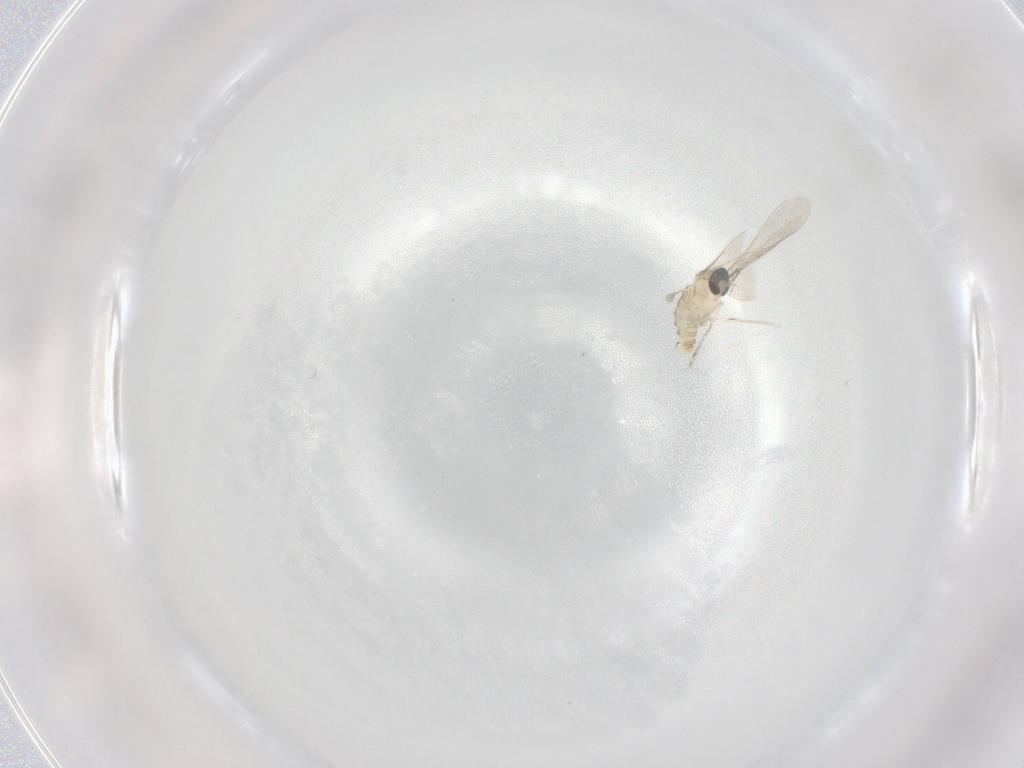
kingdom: Animalia
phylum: Arthropoda
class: Insecta
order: Diptera
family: Cecidomyiidae
